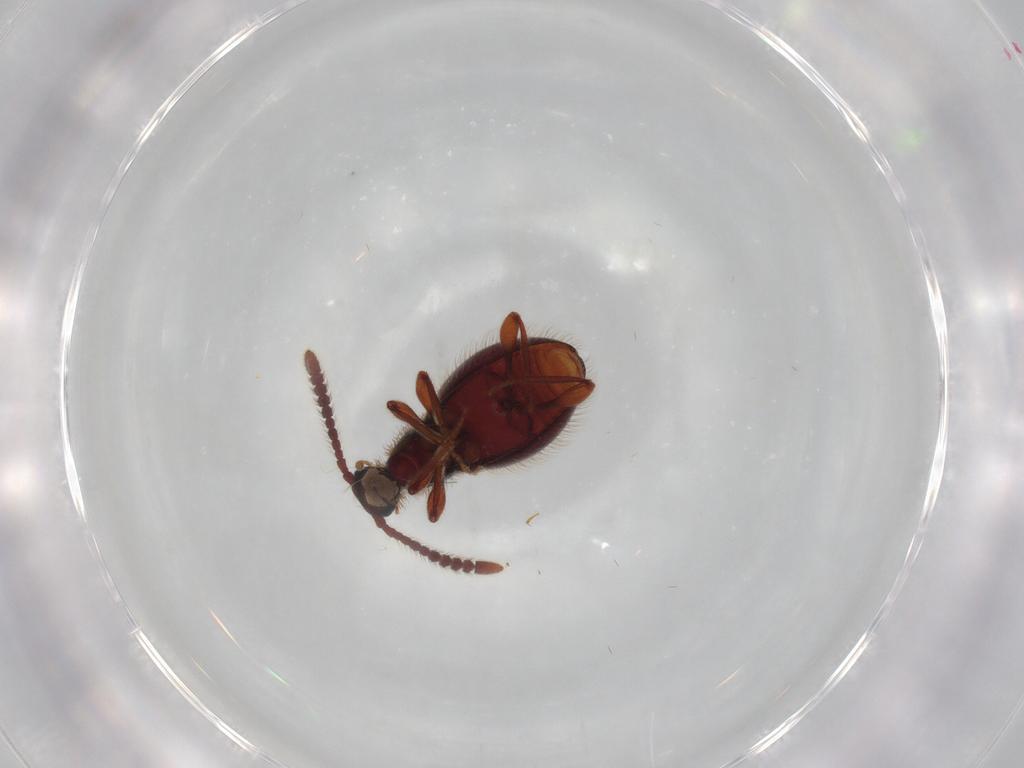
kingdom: Animalia
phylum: Arthropoda
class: Insecta
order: Coleoptera
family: Staphylinidae
